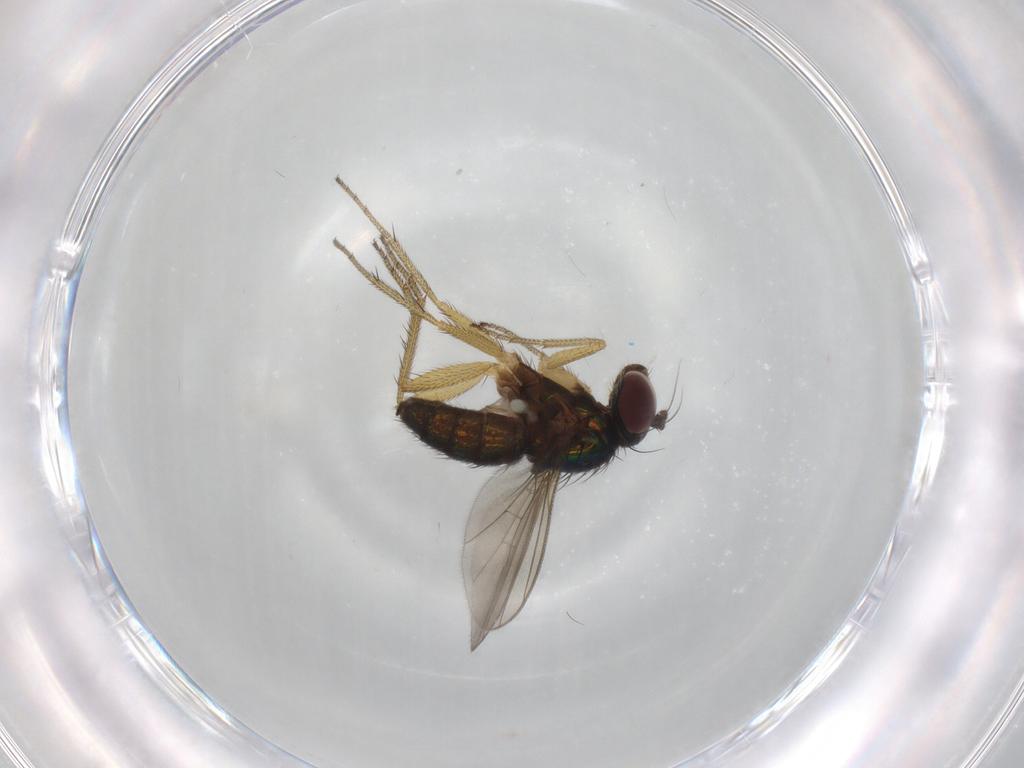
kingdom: Animalia
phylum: Arthropoda
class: Insecta
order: Diptera
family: Dolichopodidae
